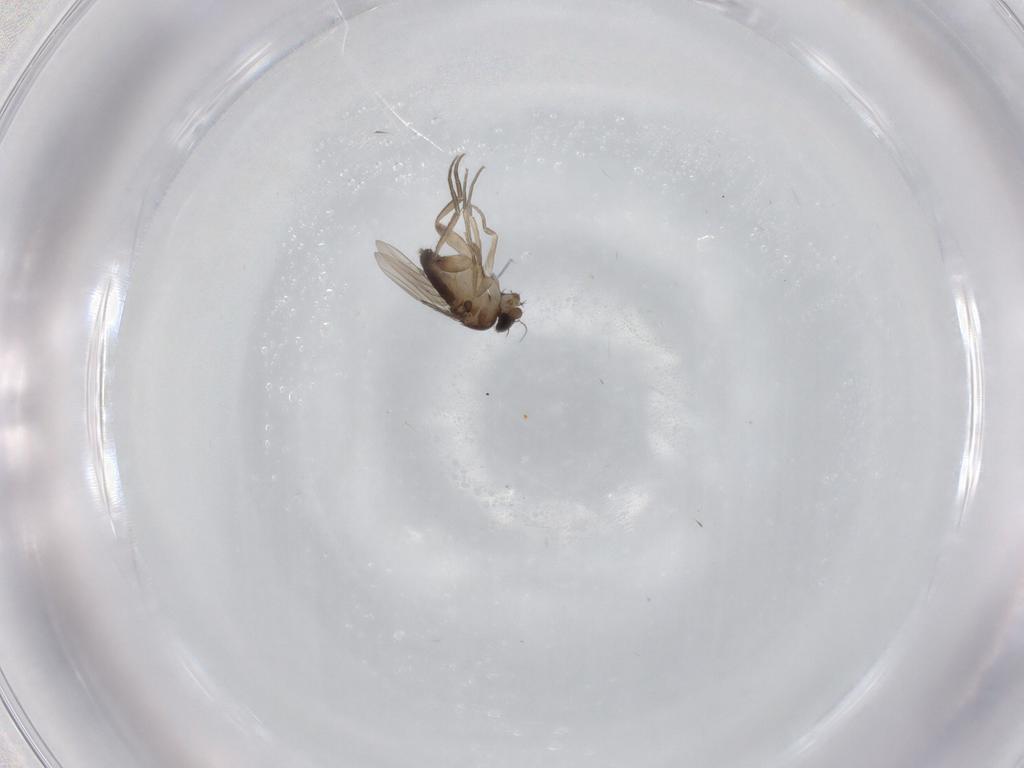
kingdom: Animalia
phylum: Arthropoda
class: Insecta
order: Diptera
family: Phoridae
